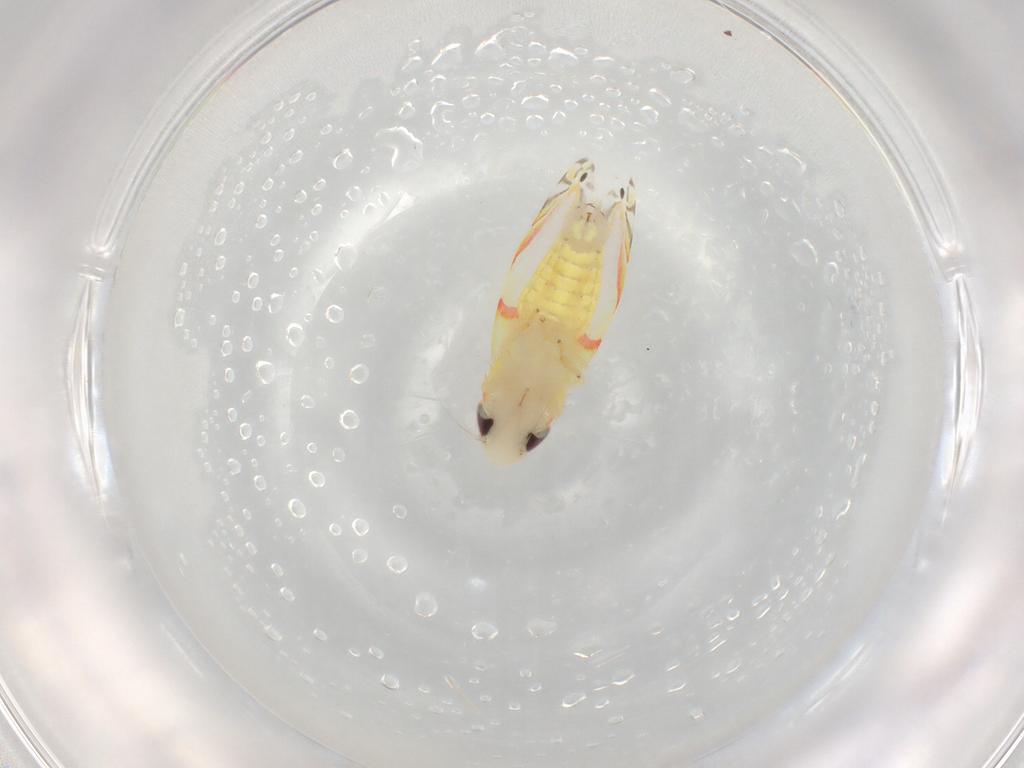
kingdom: Animalia
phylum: Arthropoda
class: Insecta
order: Hemiptera
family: Cicadellidae
